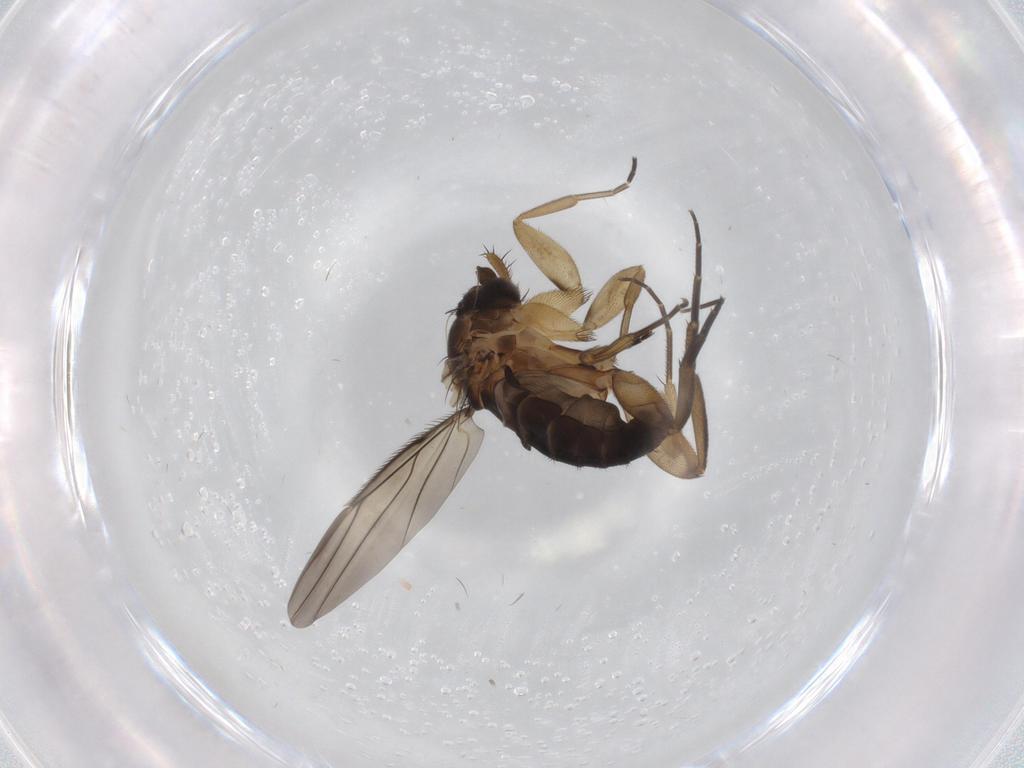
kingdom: Animalia
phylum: Arthropoda
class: Insecta
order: Diptera
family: Phoridae
